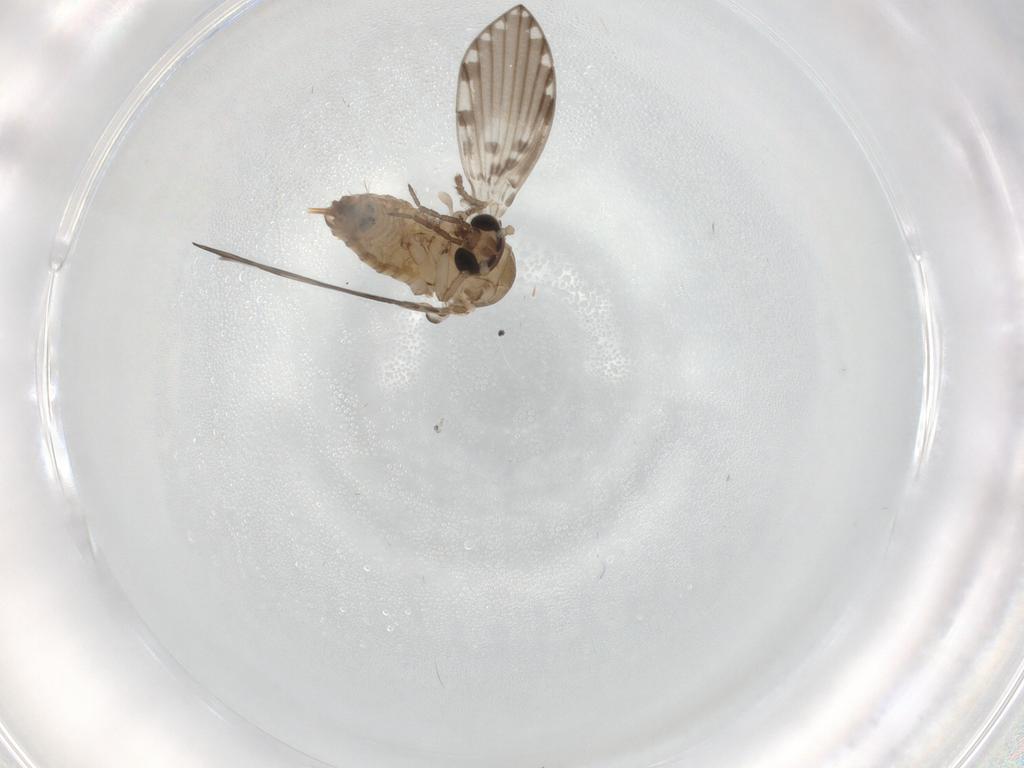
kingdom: Animalia
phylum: Arthropoda
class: Insecta
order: Diptera
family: Psychodidae
